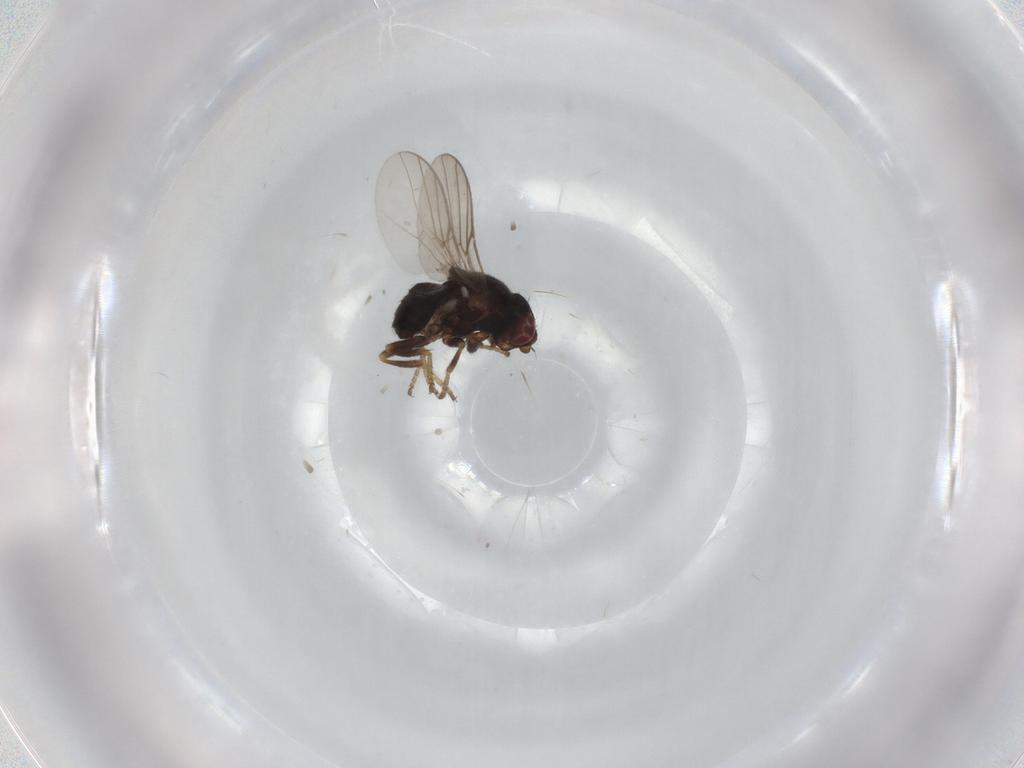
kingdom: Animalia
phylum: Arthropoda
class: Insecta
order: Diptera
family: Chloropidae
